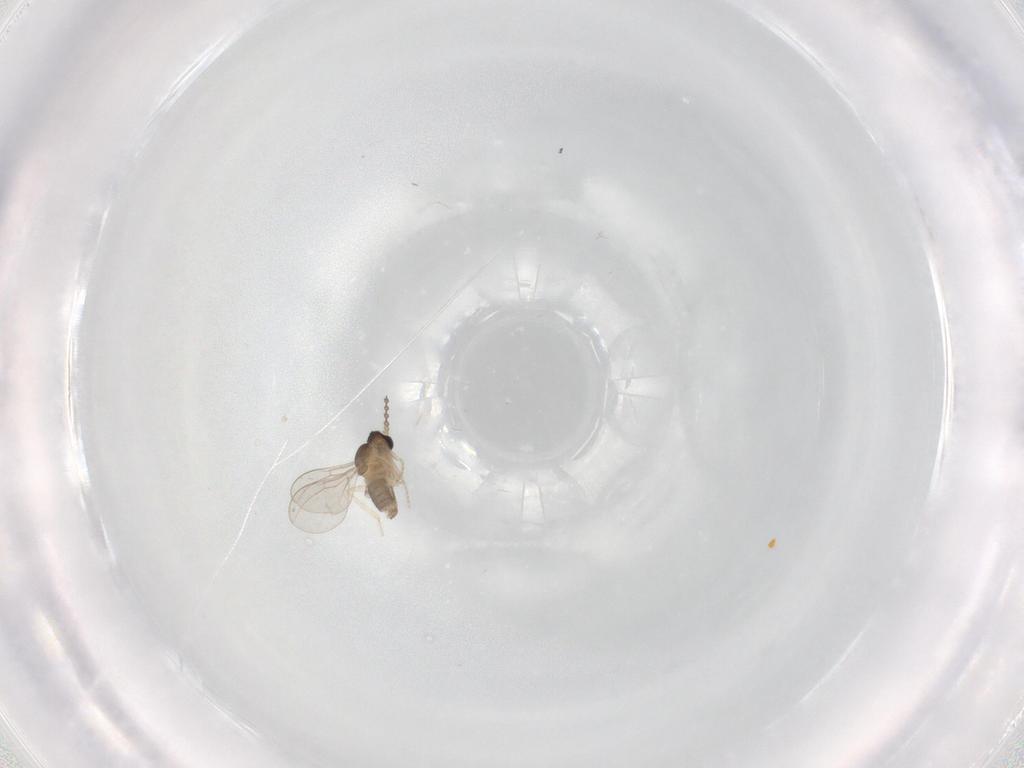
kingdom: Animalia
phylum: Arthropoda
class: Insecta
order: Diptera
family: Cecidomyiidae
